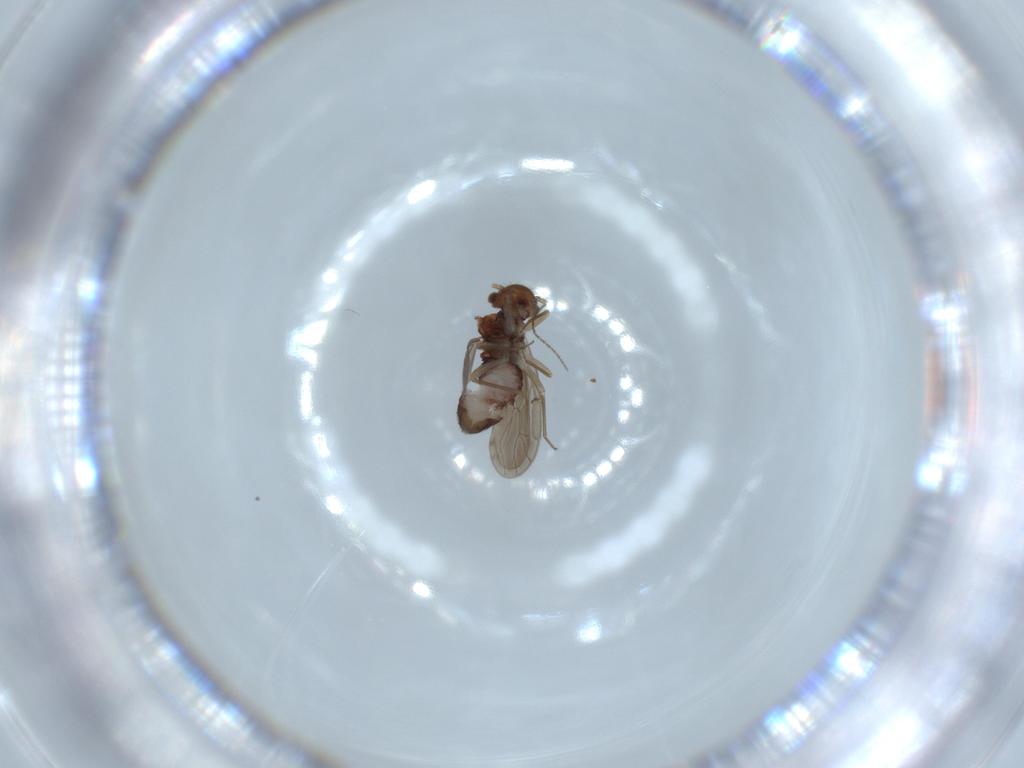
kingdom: Animalia
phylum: Arthropoda
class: Insecta
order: Psocodea
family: Ectopsocidae
